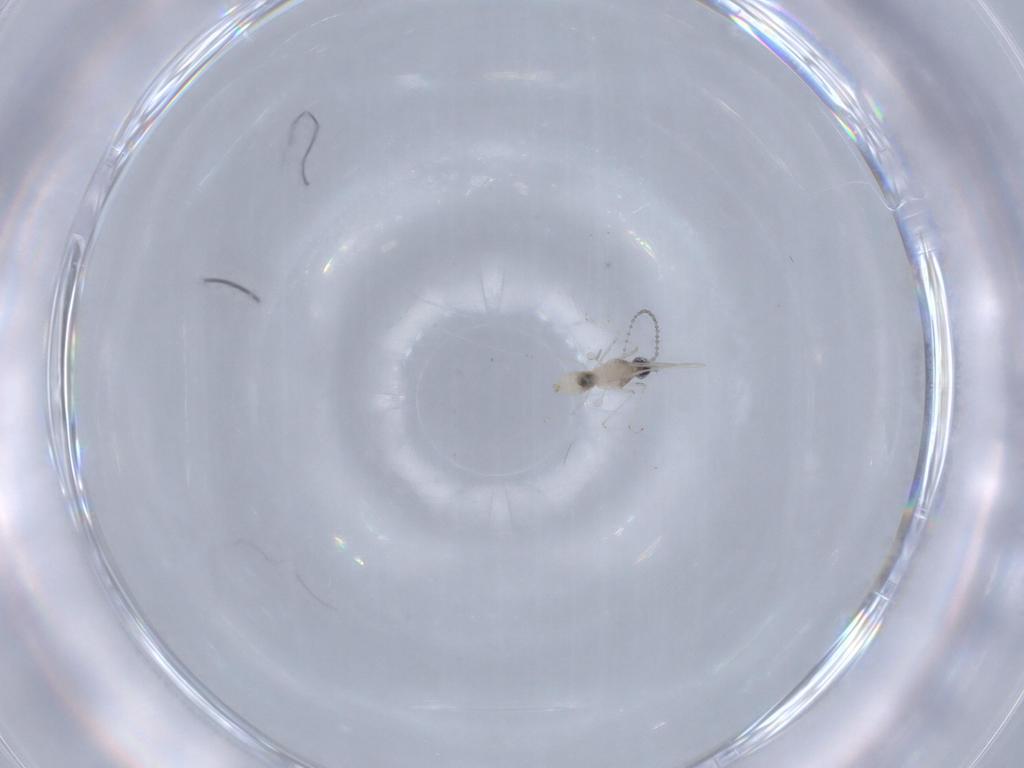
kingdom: Animalia
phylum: Arthropoda
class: Insecta
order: Diptera
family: Cecidomyiidae
